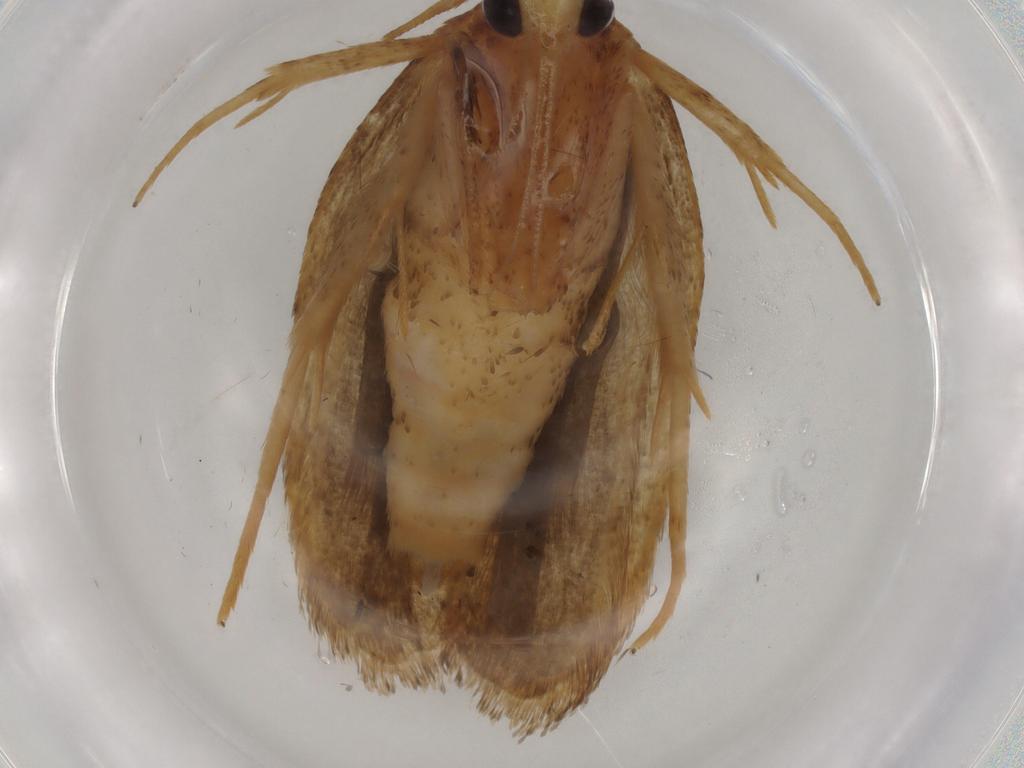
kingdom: Animalia
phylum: Arthropoda
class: Insecta
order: Lepidoptera
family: Autostichidae
